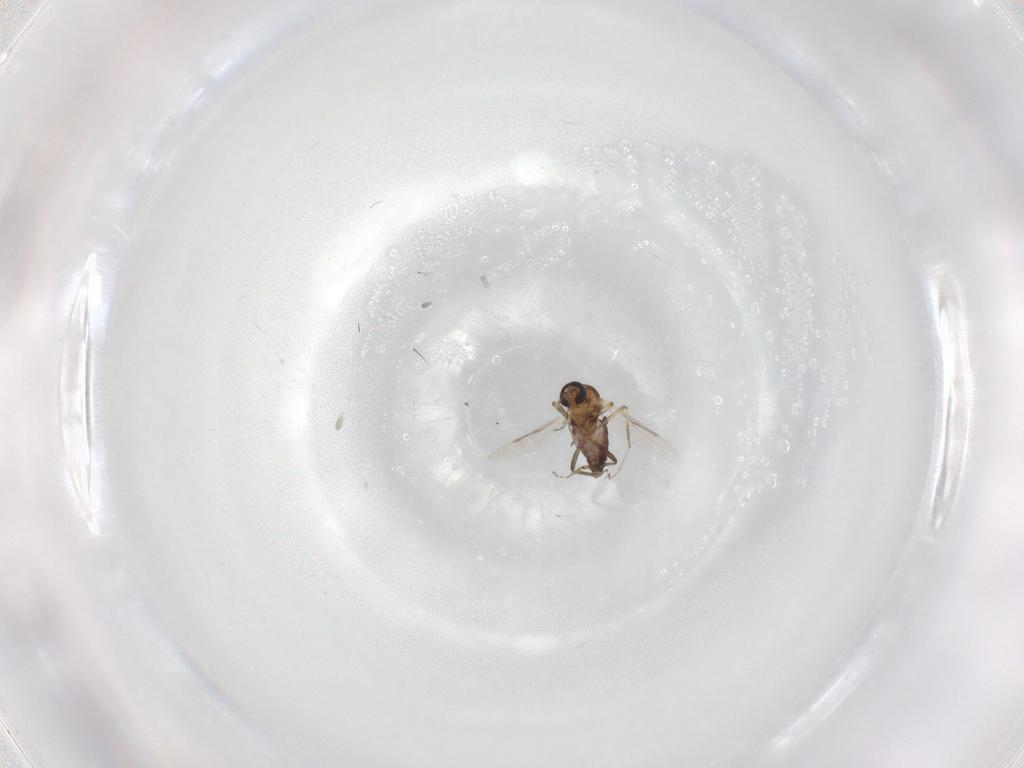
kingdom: Animalia
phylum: Arthropoda
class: Insecta
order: Diptera
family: Ceratopogonidae
